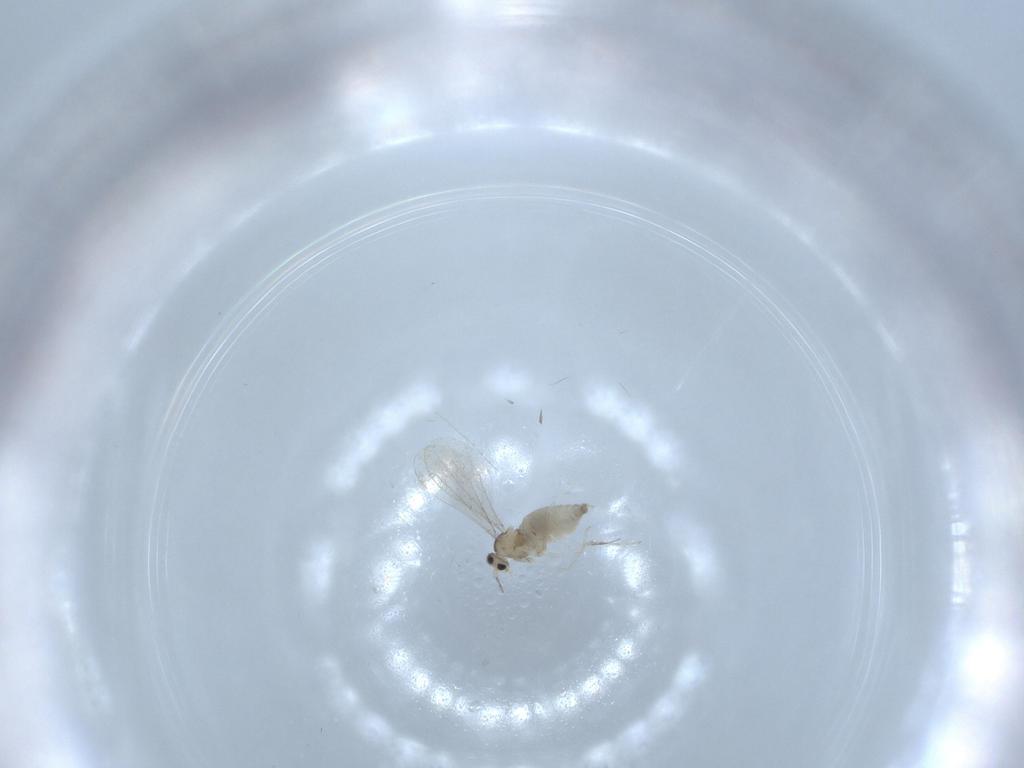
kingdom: Animalia
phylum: Arthropoda
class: Insecta
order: Diptera
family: Cecidomyiidae
